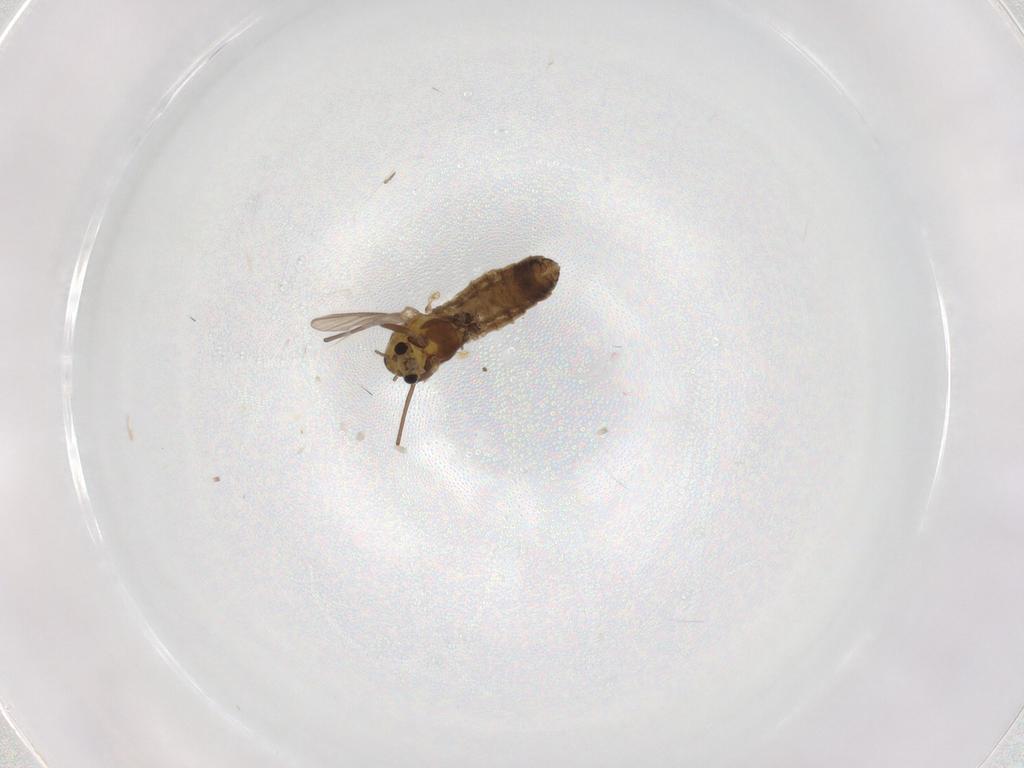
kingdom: Animalia
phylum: Arthropoda
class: Insecta
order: Diptera
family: Chironomidae
